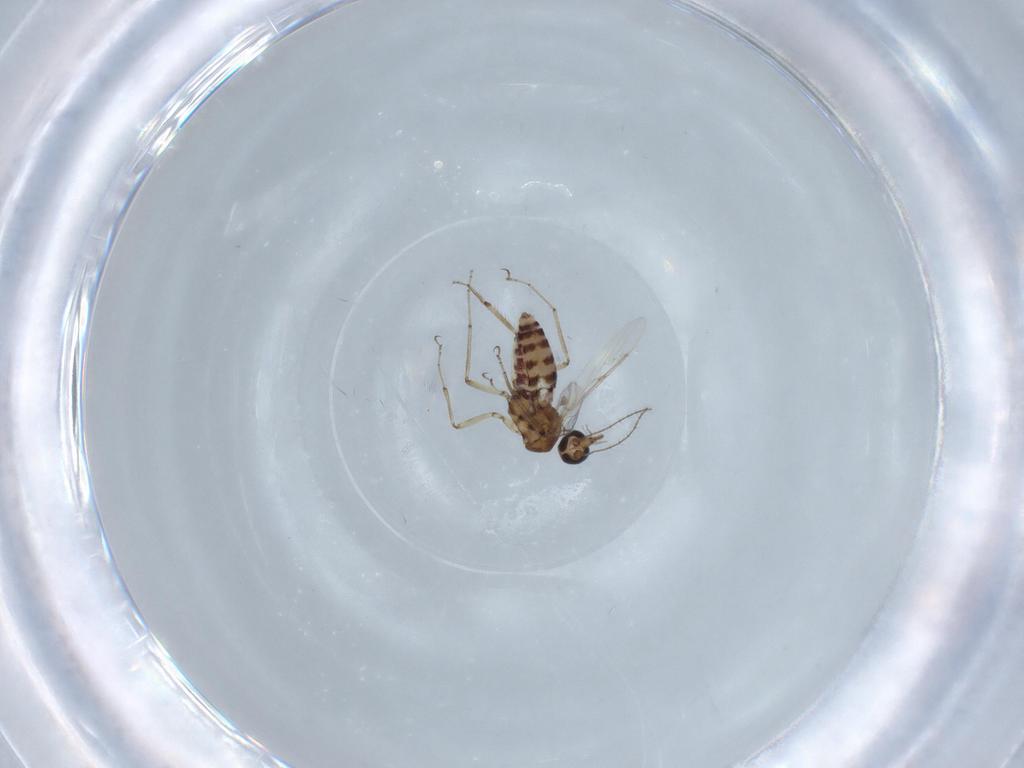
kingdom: Animalia
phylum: Arthropoda
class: Insecta
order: Diptera
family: Ceratopogonidae
